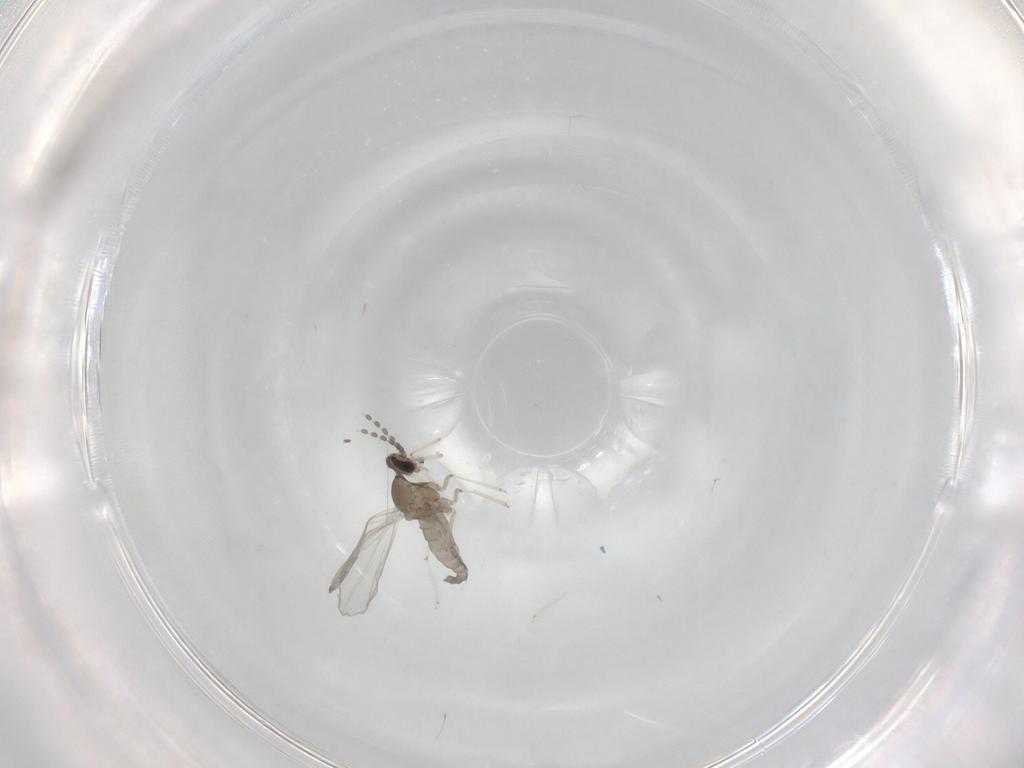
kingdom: Animalia
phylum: Arthropoda
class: Insecta
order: Diptera
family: Cecidomyiidae
